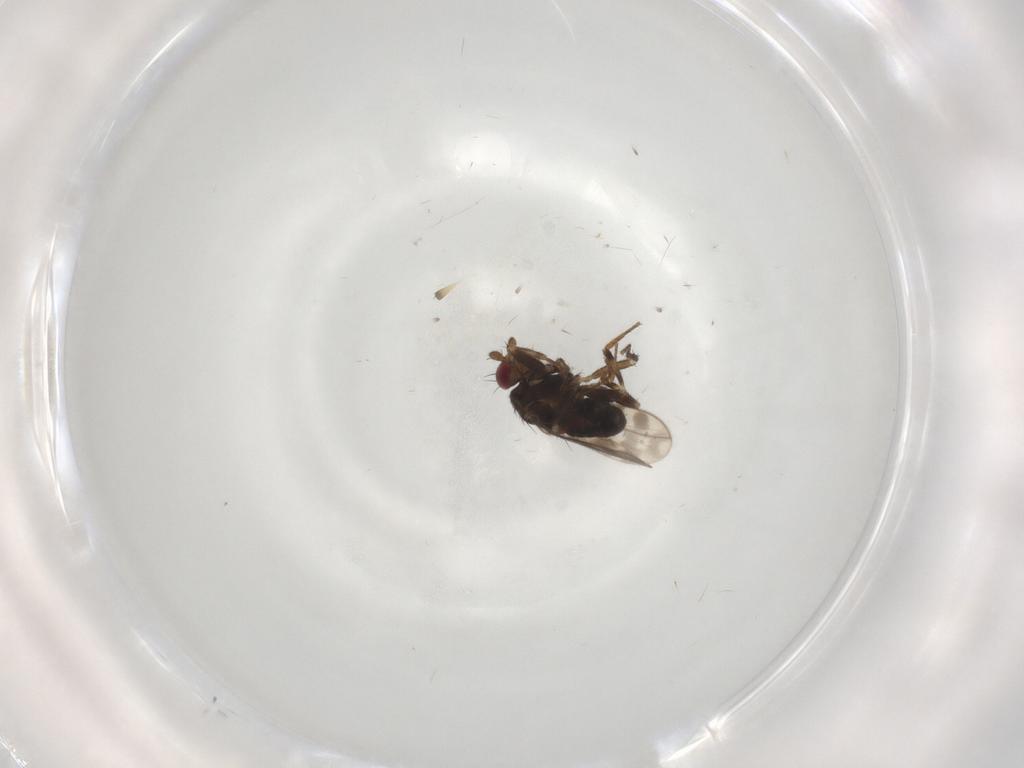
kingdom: Animalia
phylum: Arthropoda
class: Insecta
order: Diptera
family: Sphaeroceridae
